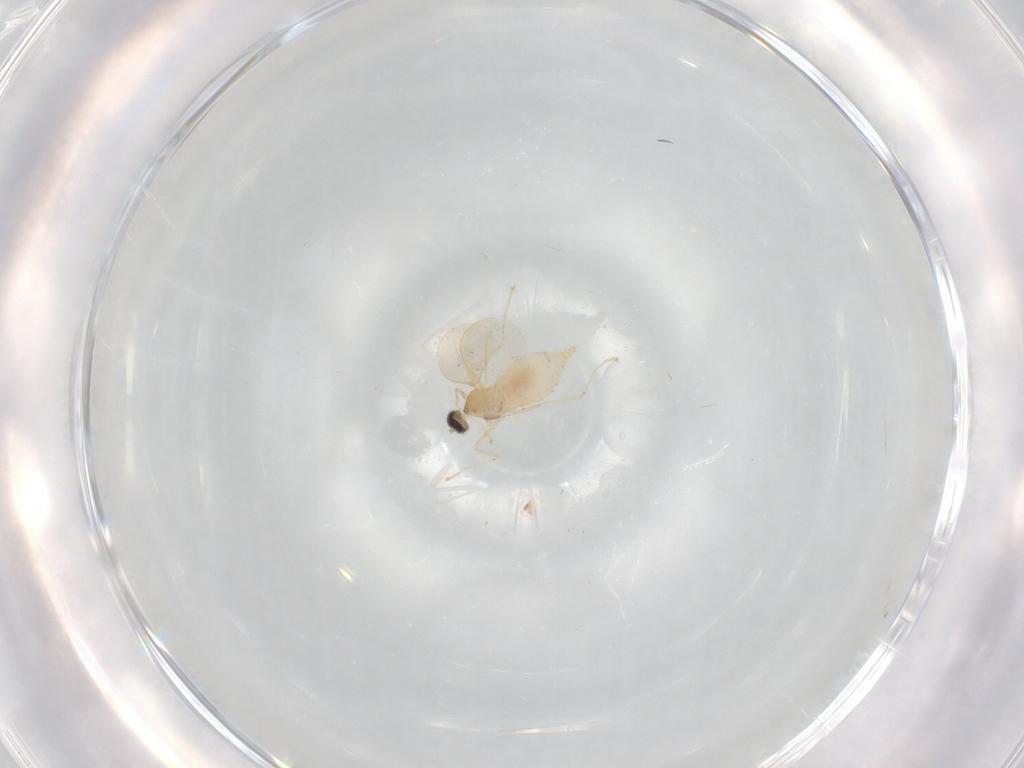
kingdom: Animalia
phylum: Arthropoda
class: Insecta
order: Diptera
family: Cecidomyiidae
